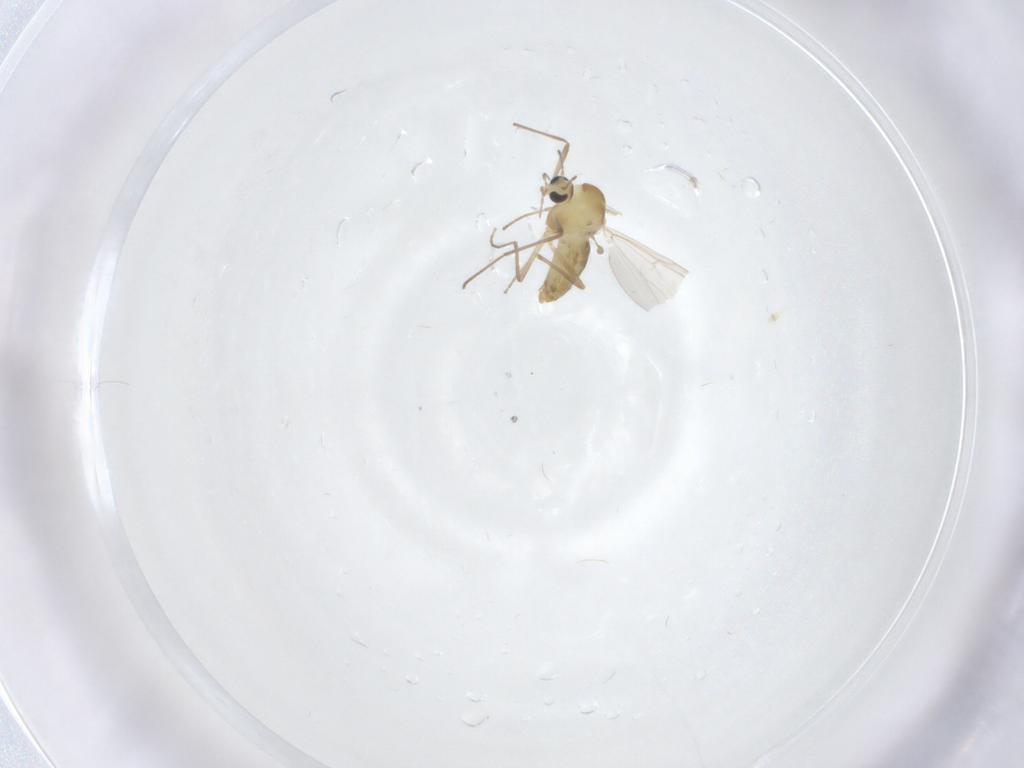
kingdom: Animalia
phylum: Arthropoda
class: Insecta
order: Diptera
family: Chironomidae
